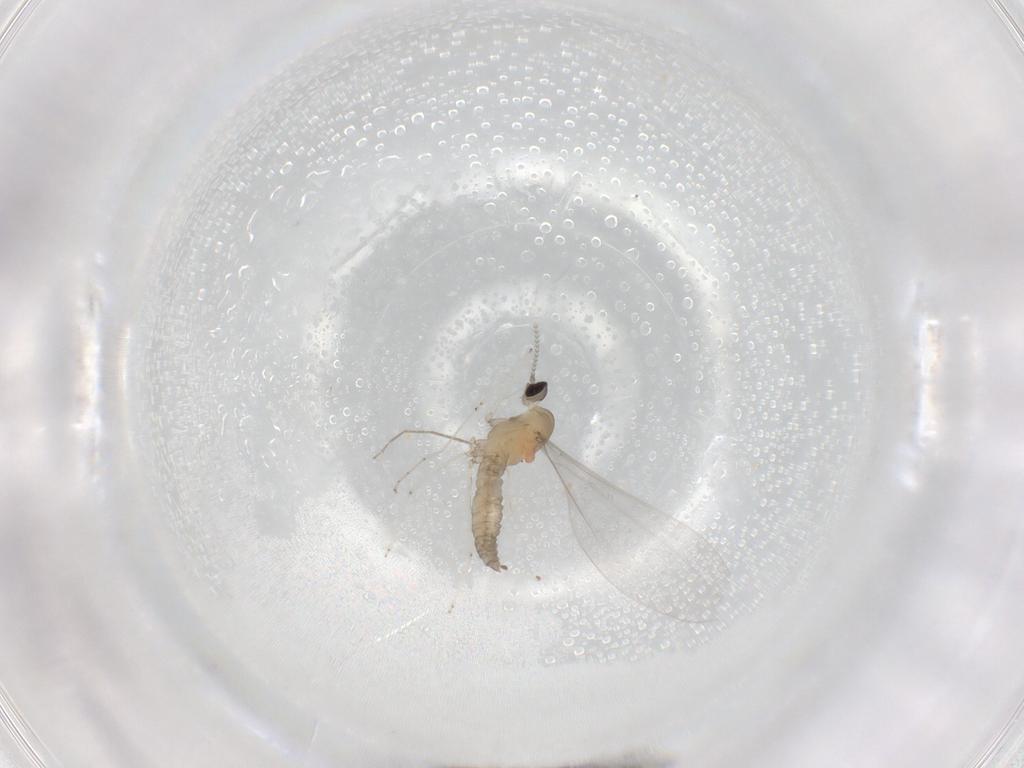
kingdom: Animalia
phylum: Arthropoda
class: Insecta
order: Diptera
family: Chironomidae
